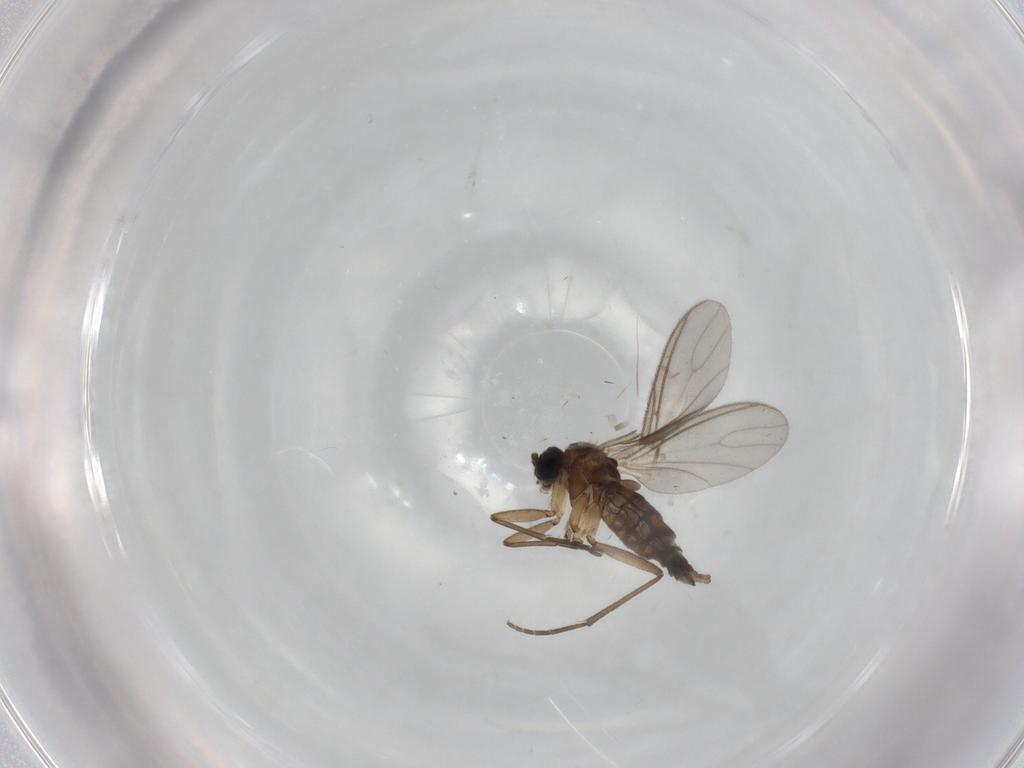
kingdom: Animalia
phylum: Arthropoda
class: Insecta
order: Diptera
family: Sciaridae
